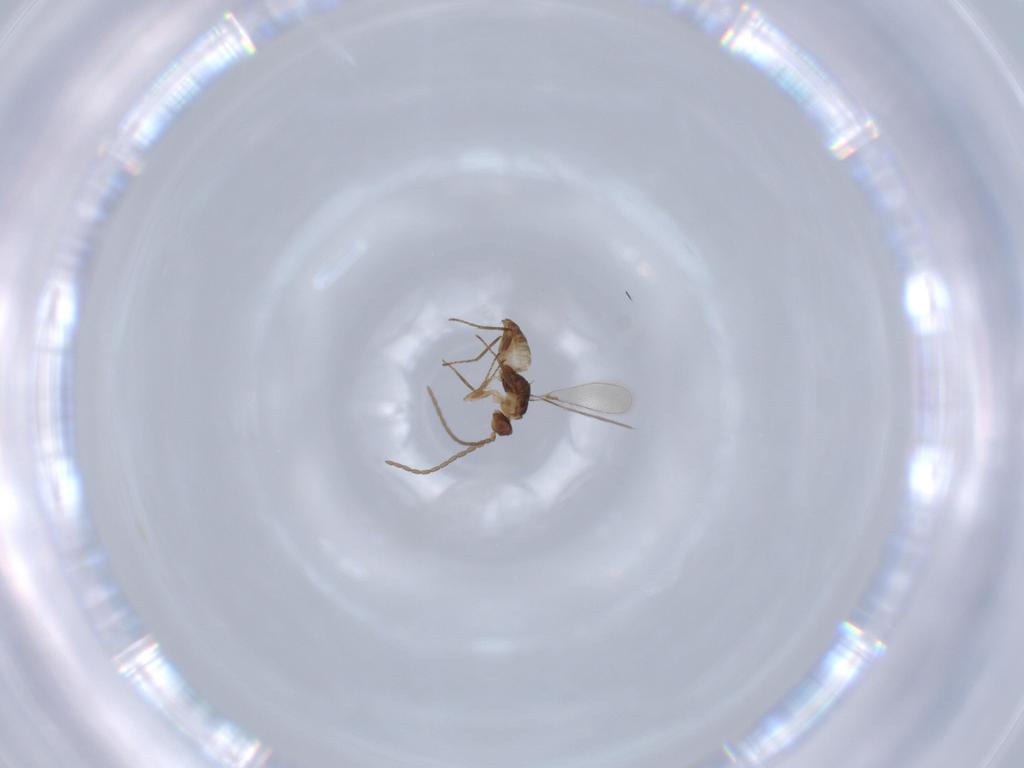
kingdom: Animalia
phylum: Arthropoda
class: Insecta
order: Hymenoptera
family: Mymaridae
